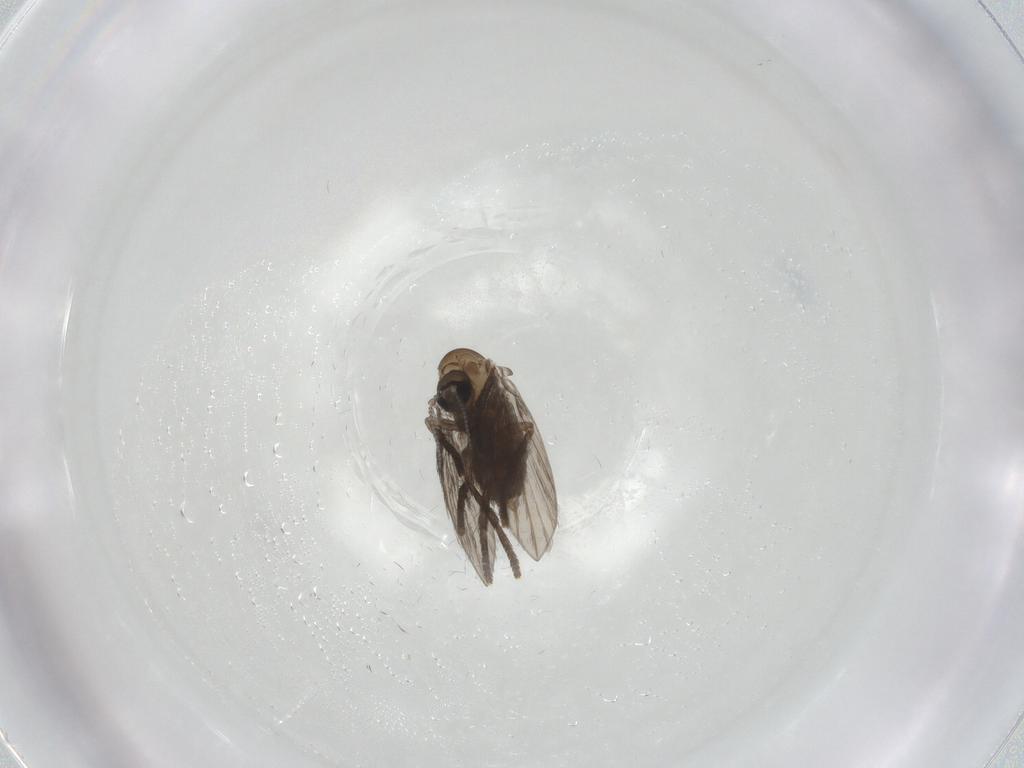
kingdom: Animalia
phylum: Arthropoda
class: Insecta
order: Diptera
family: Psychodidae
